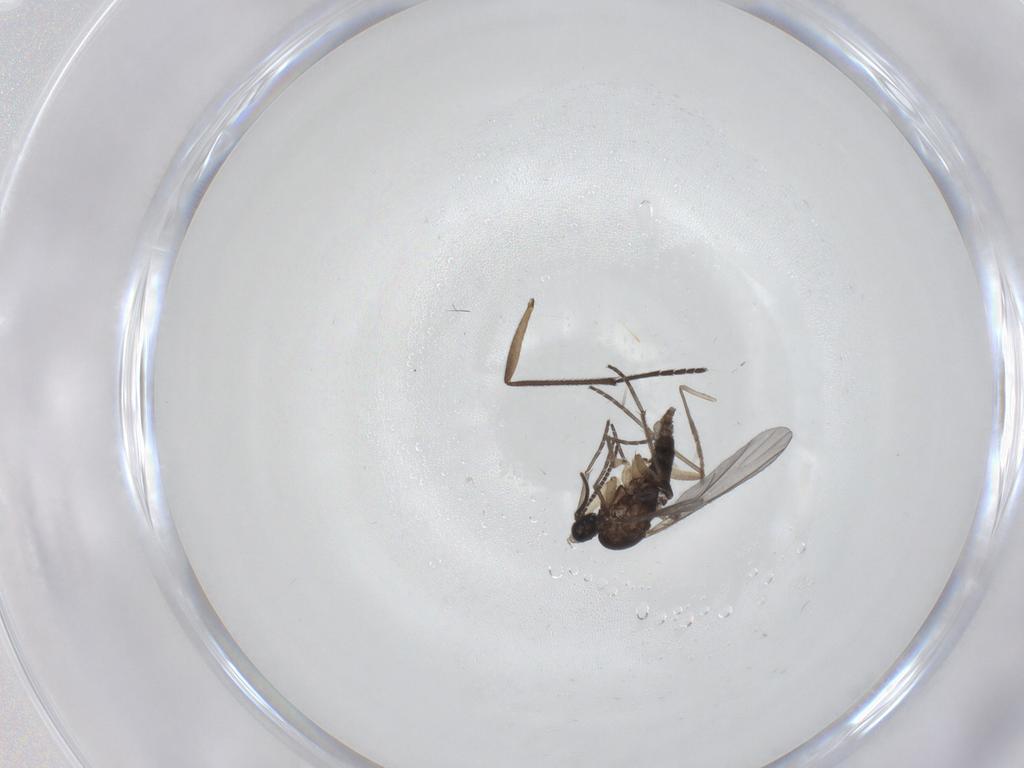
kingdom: Animalia
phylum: Arthropoda
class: Insecta
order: Diptera
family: Sciaridae
